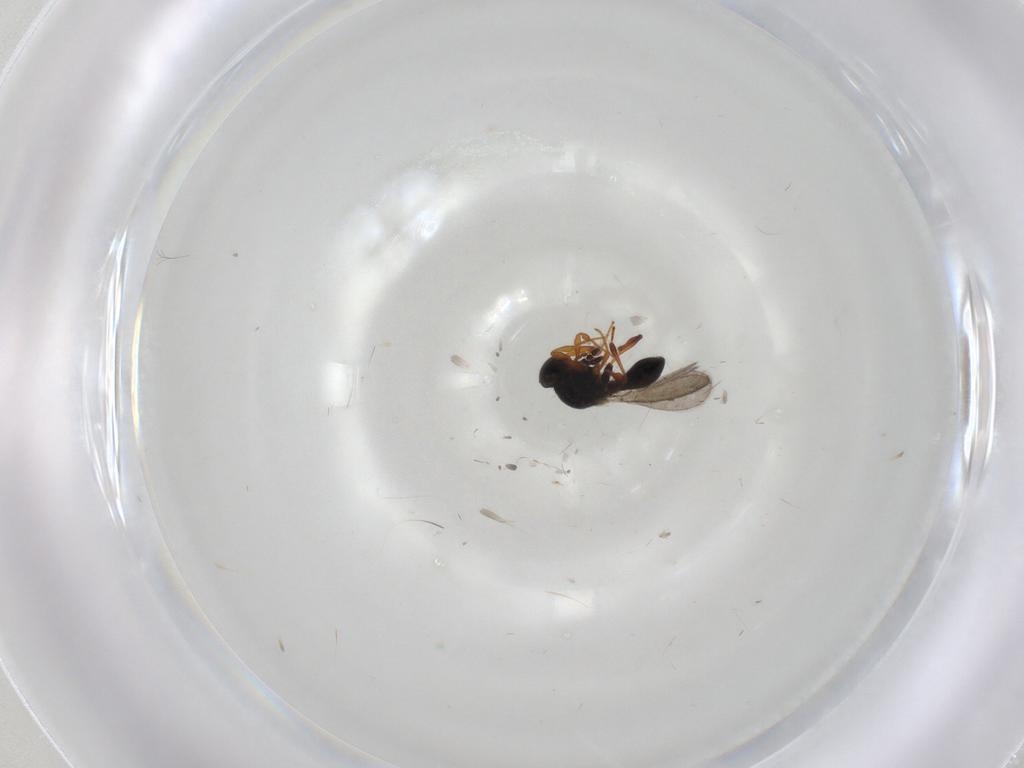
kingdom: Animalia
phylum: Arthropoda
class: Insecta
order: Hymenoptera
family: Platygastridae
